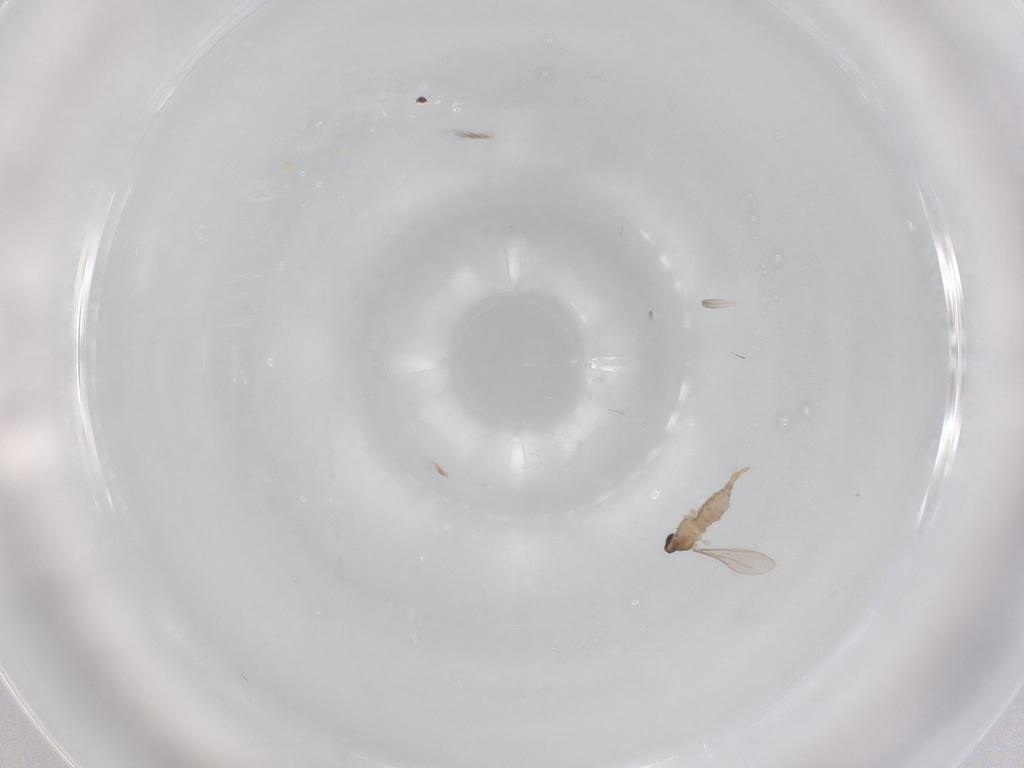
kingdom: Animalia
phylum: Arthropoda
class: Insecta
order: Diptera
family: Cecidomyiidae
